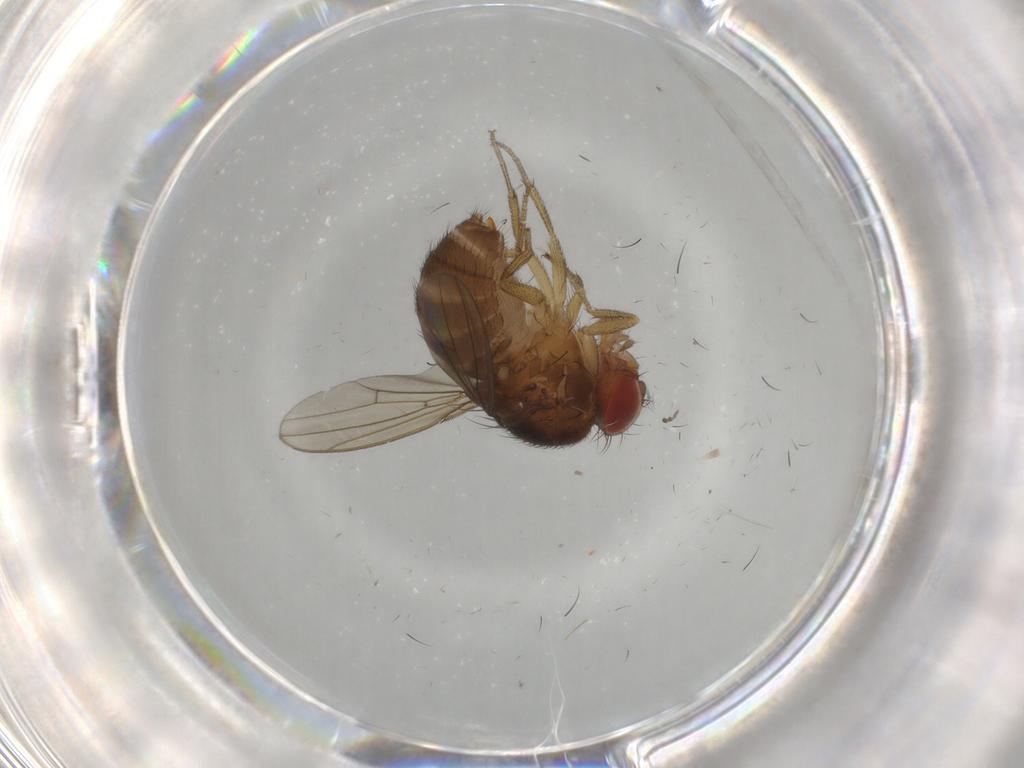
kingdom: Animalia
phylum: Arthropoda
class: Insecta
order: Diptera
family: Drosophilidae
